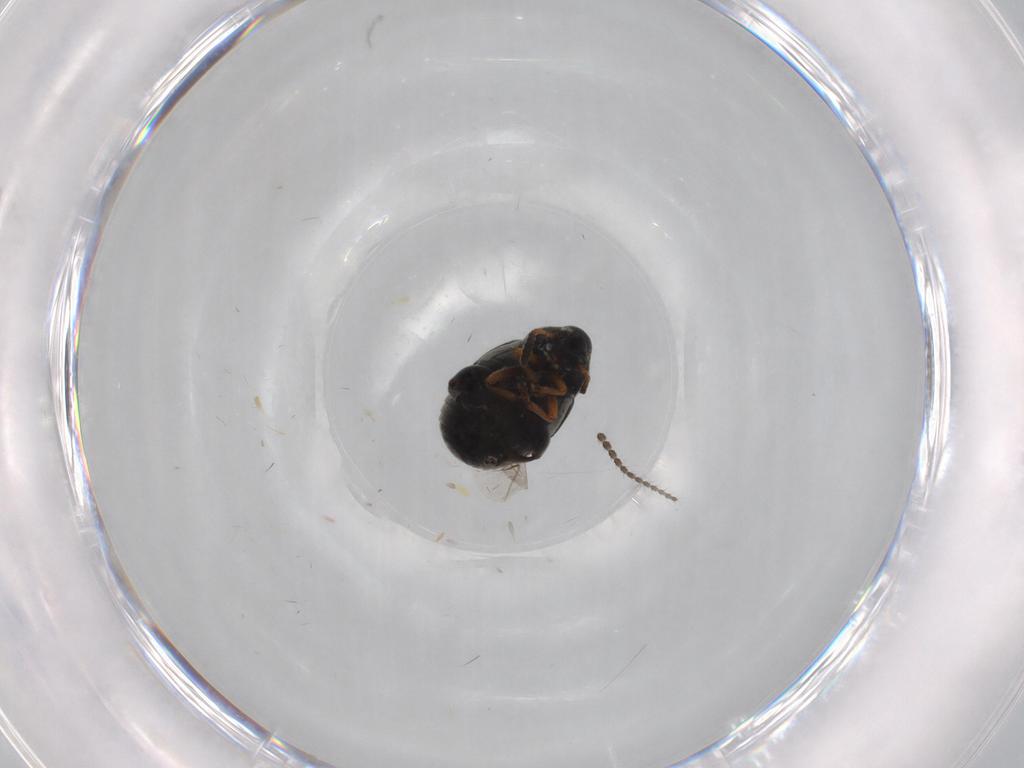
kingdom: Animalia
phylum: Arthropoda
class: Insecta
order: Coleoptera
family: Chrysomelidae
